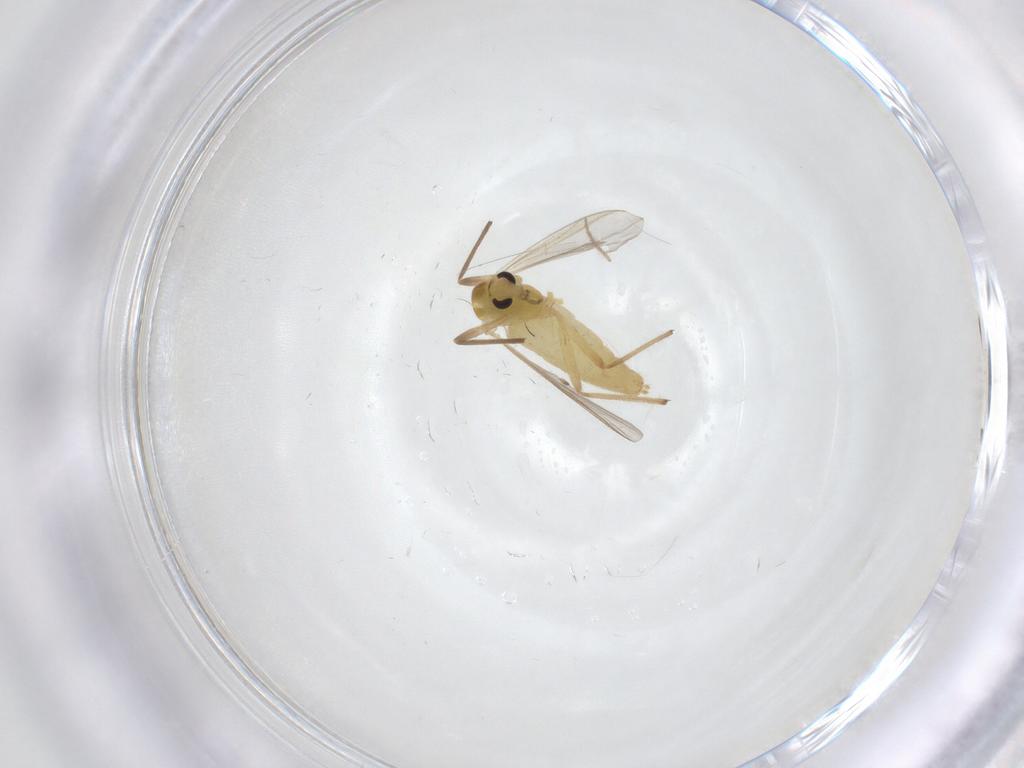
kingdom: Animalia
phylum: Arthropoda
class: Insecta
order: Diptera
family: Chironomidae
